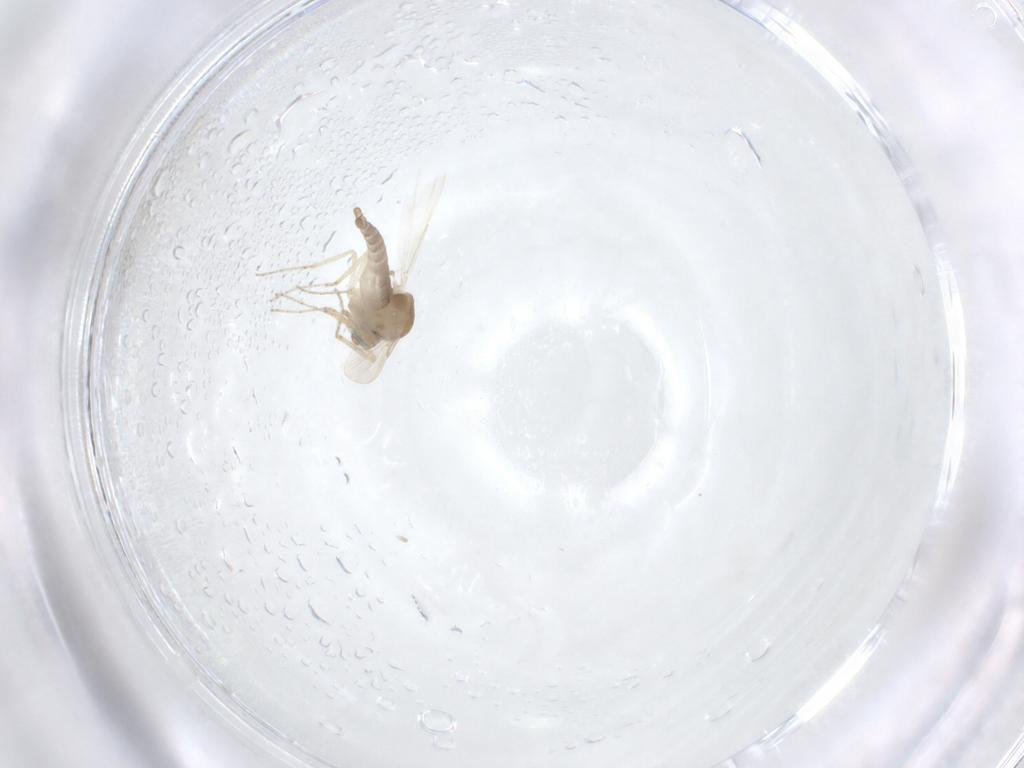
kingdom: Animalia
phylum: Arthropoda
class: Insecta
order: Diptera
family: Ceratopogonidae
